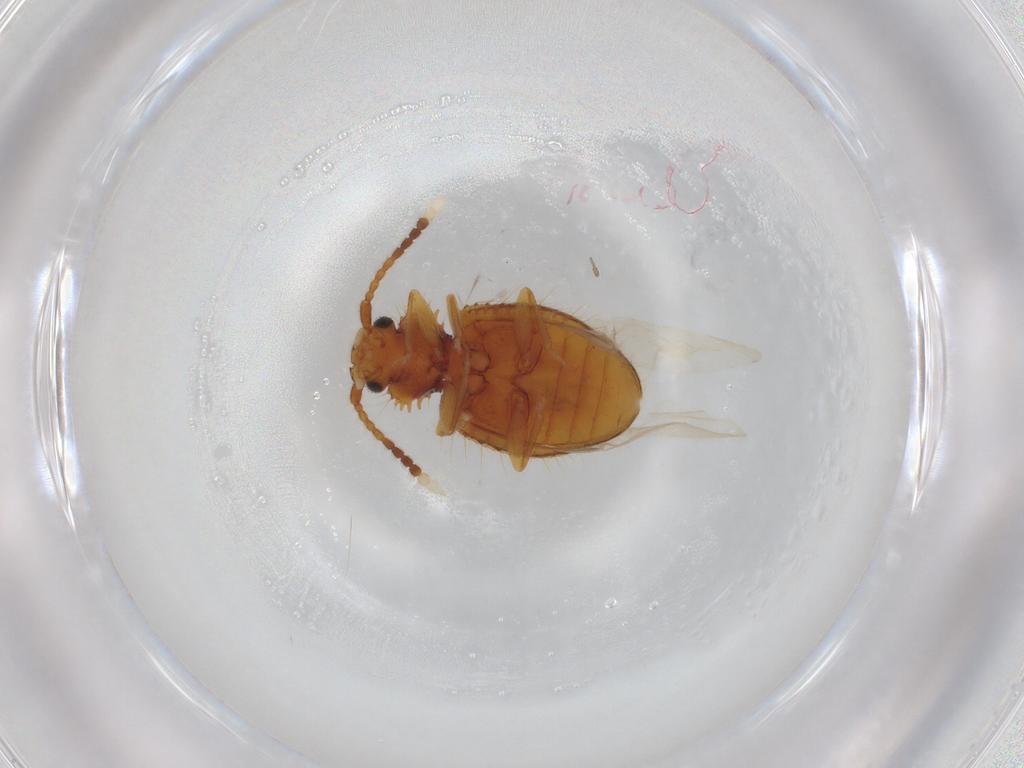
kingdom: Animalia
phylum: Arthropoda
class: Insecta
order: Coleoptera
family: Silvanidae
